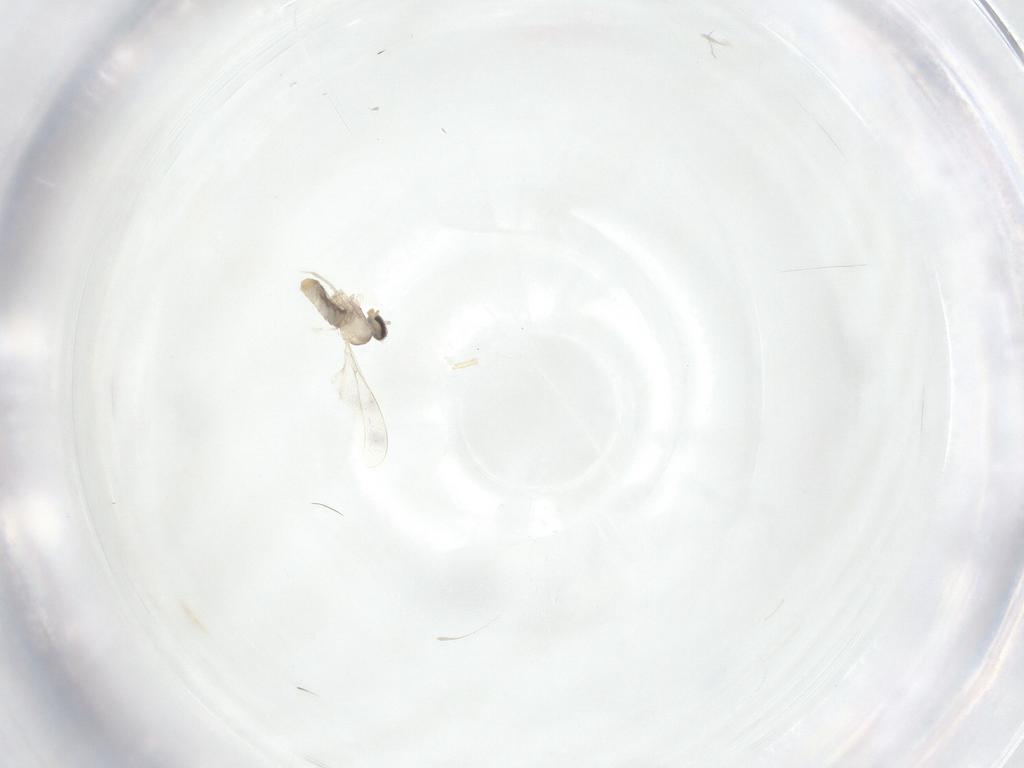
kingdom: Animalia
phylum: Arthropoda
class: Insecta
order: Diptera
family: Cecidomyiidae
